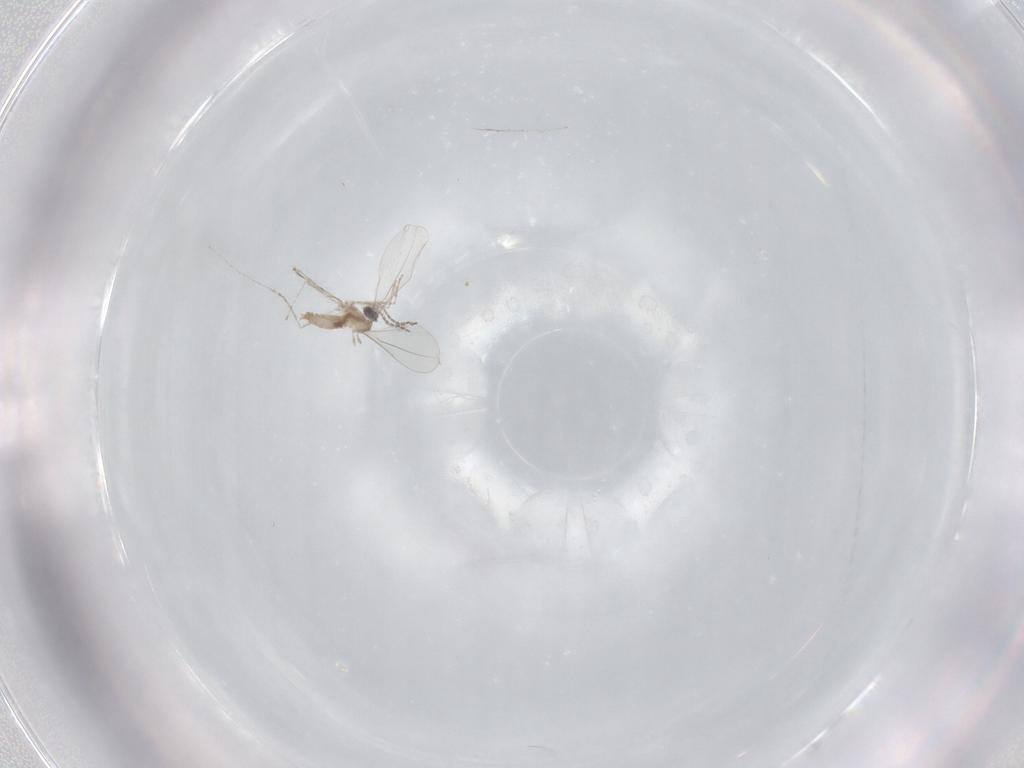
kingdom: Animalia
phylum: Arthropoda
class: Insecta
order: Diptera
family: Cecidomyiidae
